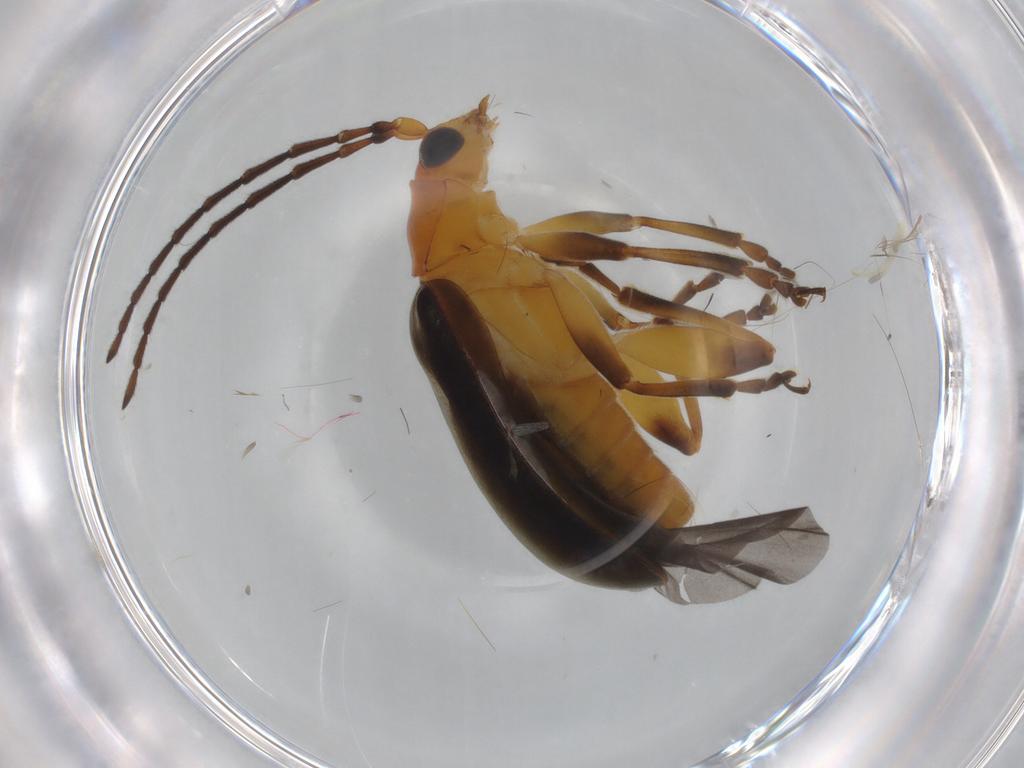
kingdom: Animalia
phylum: Arthropoda
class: Insecta
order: Coleoptera
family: Chrysomelidae
